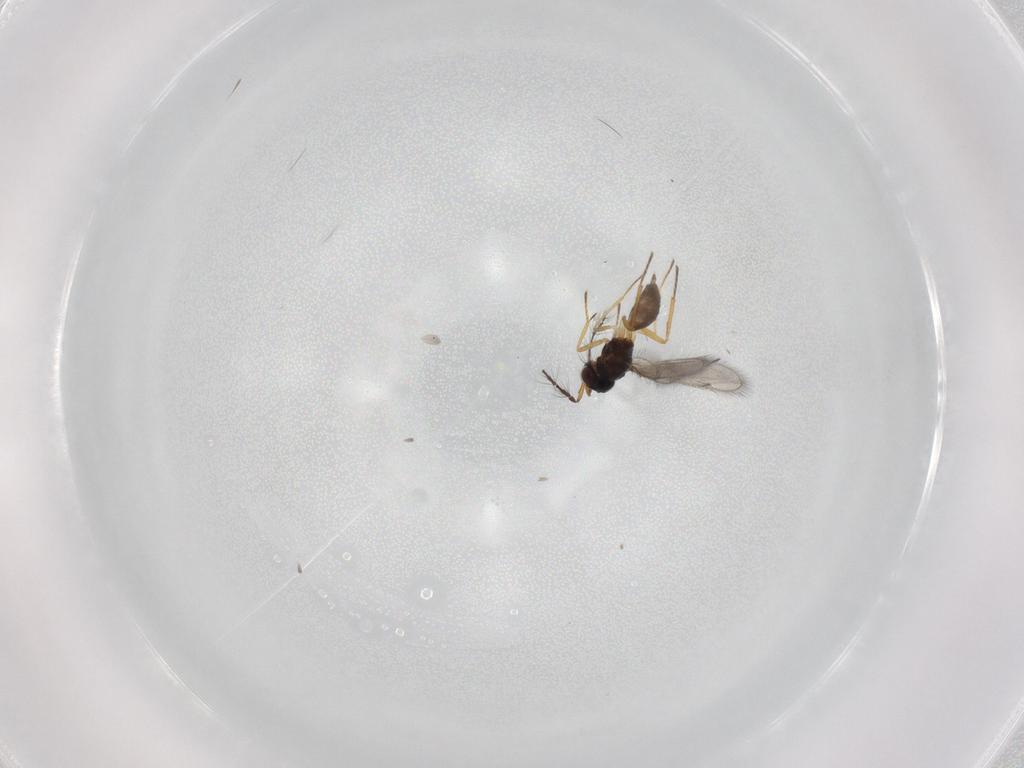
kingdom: Animalia
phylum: Arthropoda
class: Insecta
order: Hymenoptera
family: Eulophidae
